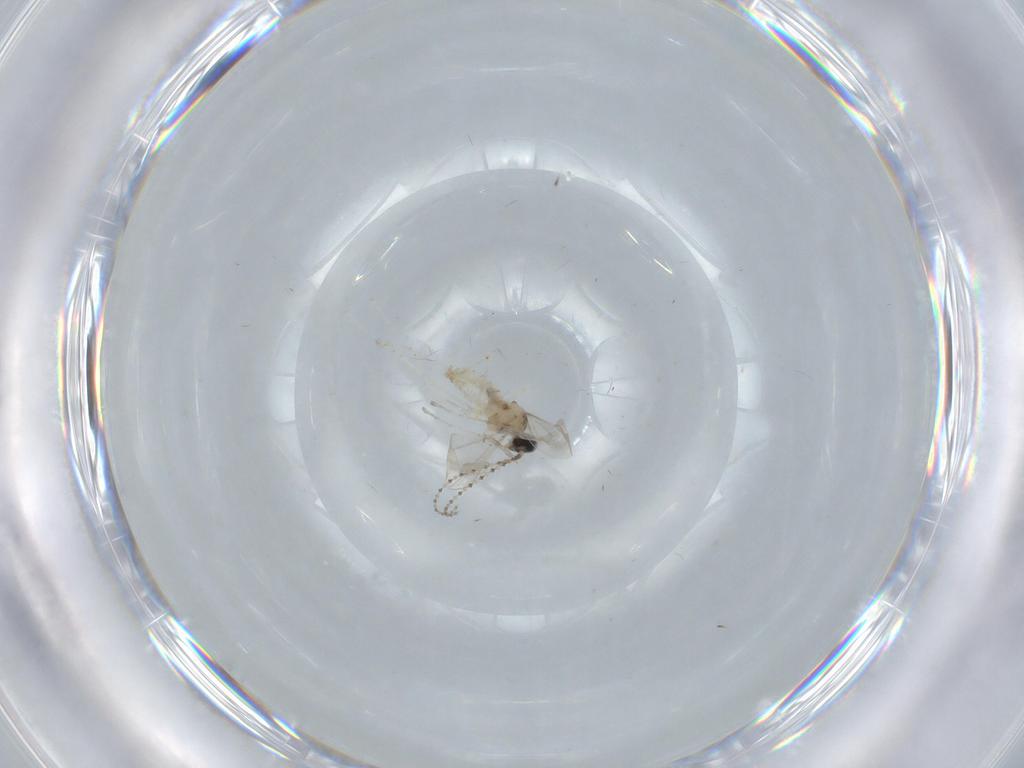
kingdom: Animalia
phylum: Arthropoda
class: Insecta
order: Diptera
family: Cecidomyiidae
